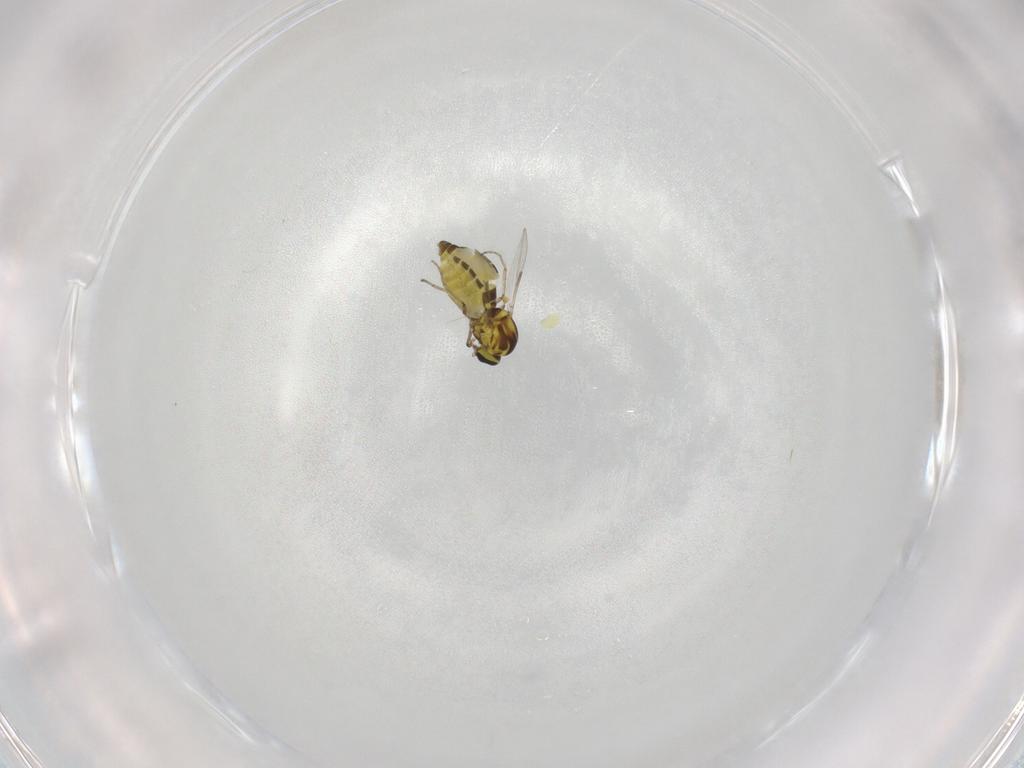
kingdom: Animalia
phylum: Arthropoda
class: Insecta
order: Diptera
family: Ceratopogonidae
